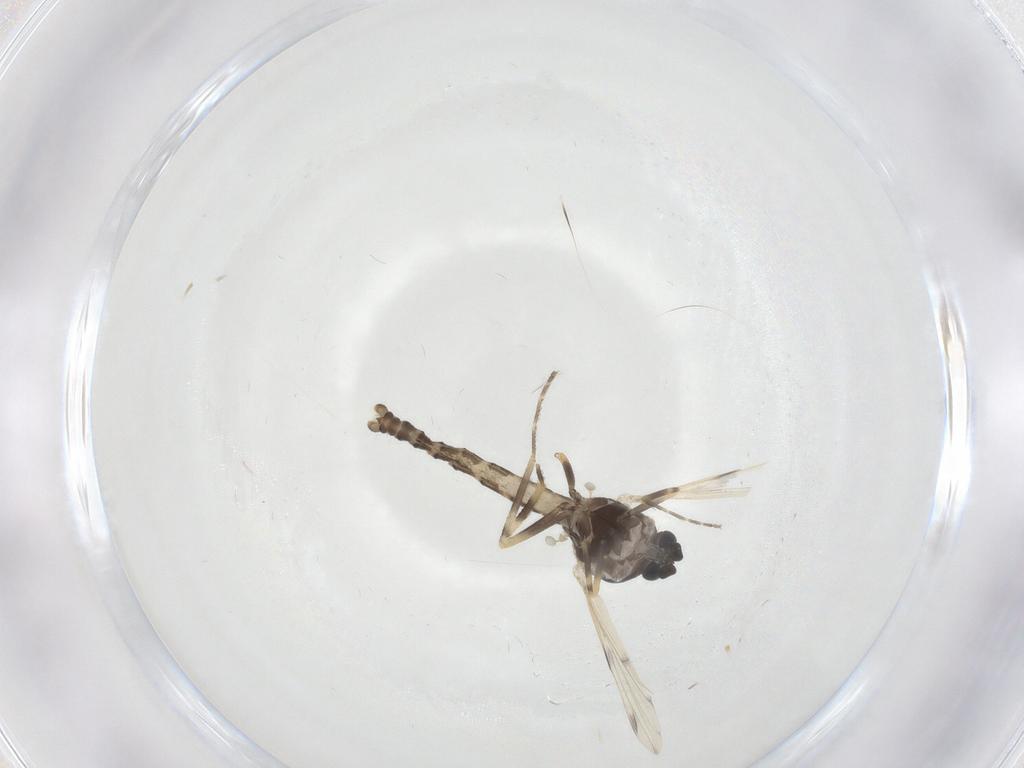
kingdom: Animalia
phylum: Arthropoda
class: Insecta
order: Diptera
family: Ceratopogonidae
